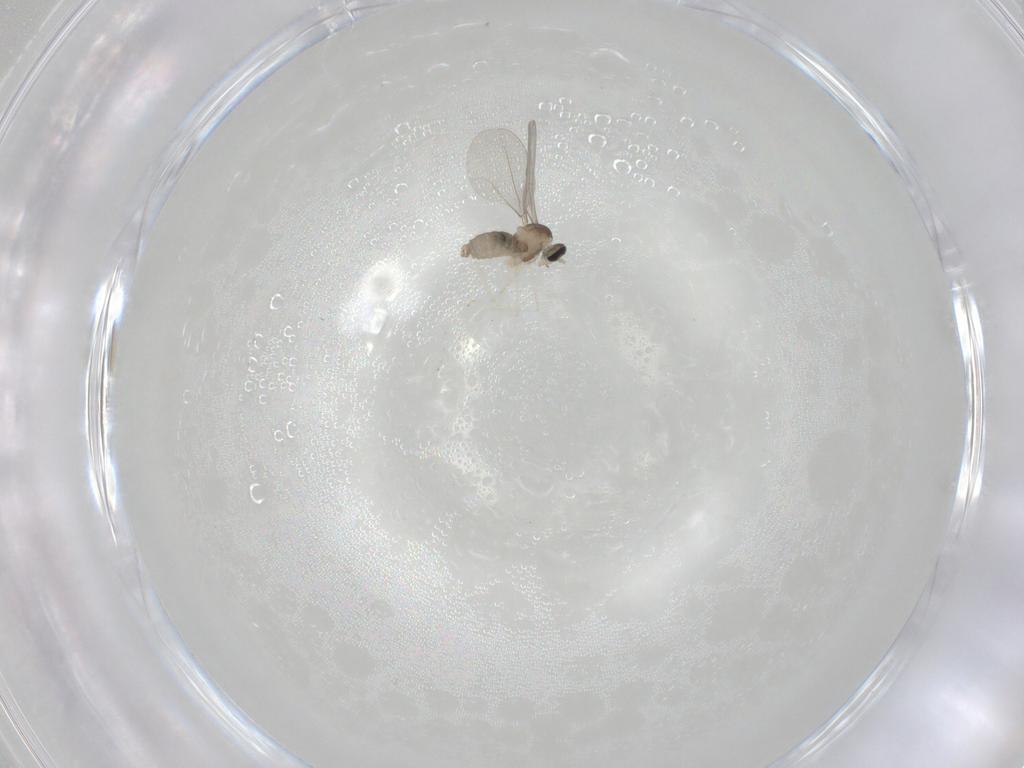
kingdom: Animalia
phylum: Arthropoda
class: Insecta
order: Diptera
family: Cecidomyiidae
